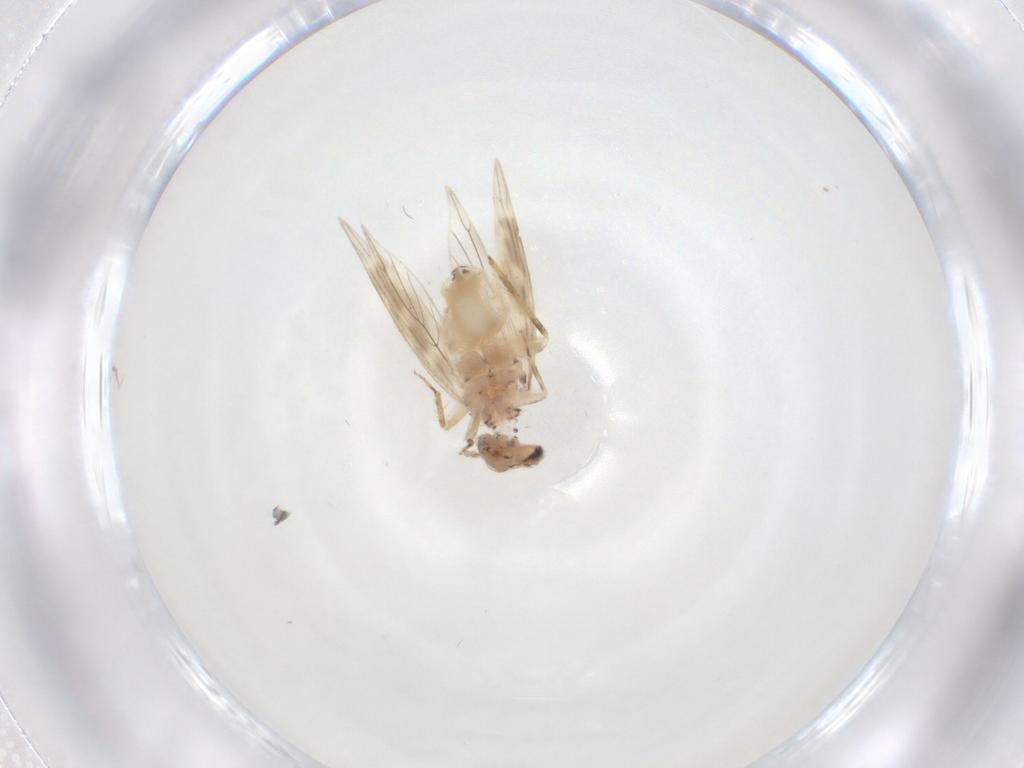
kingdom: Animalia
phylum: Arthropoda
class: Insecta
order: Psocodea
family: Lepidopsocidae
